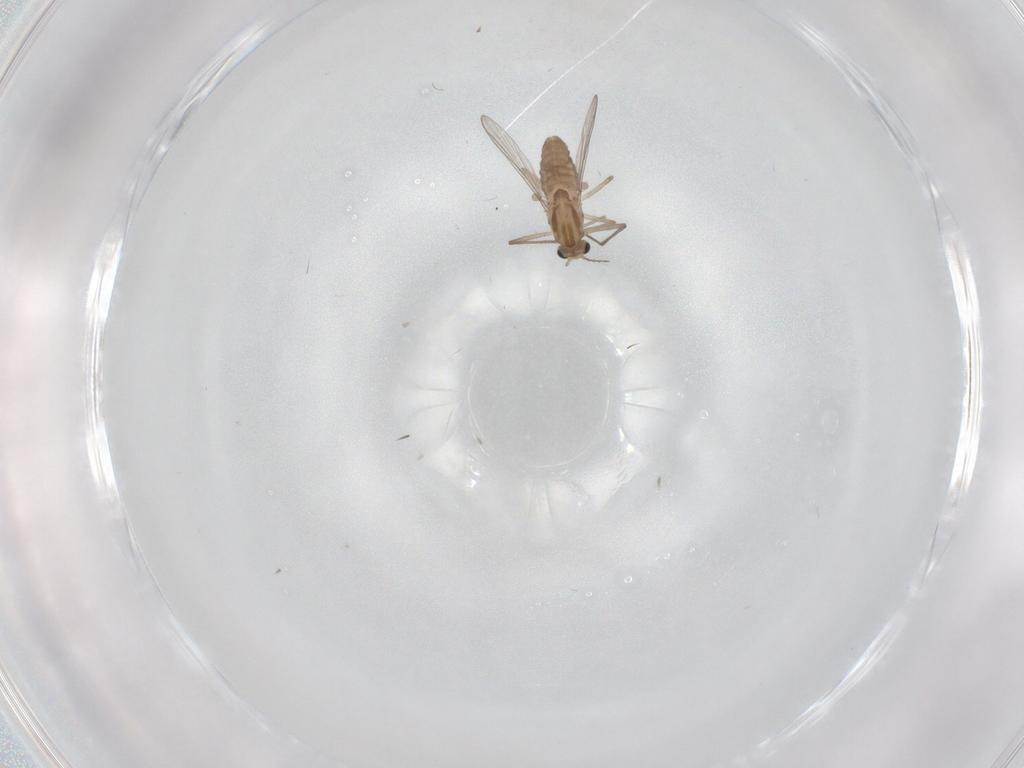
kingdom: Animalia
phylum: Arthropoda
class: Insecta
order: Diptera
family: Chironomidae
